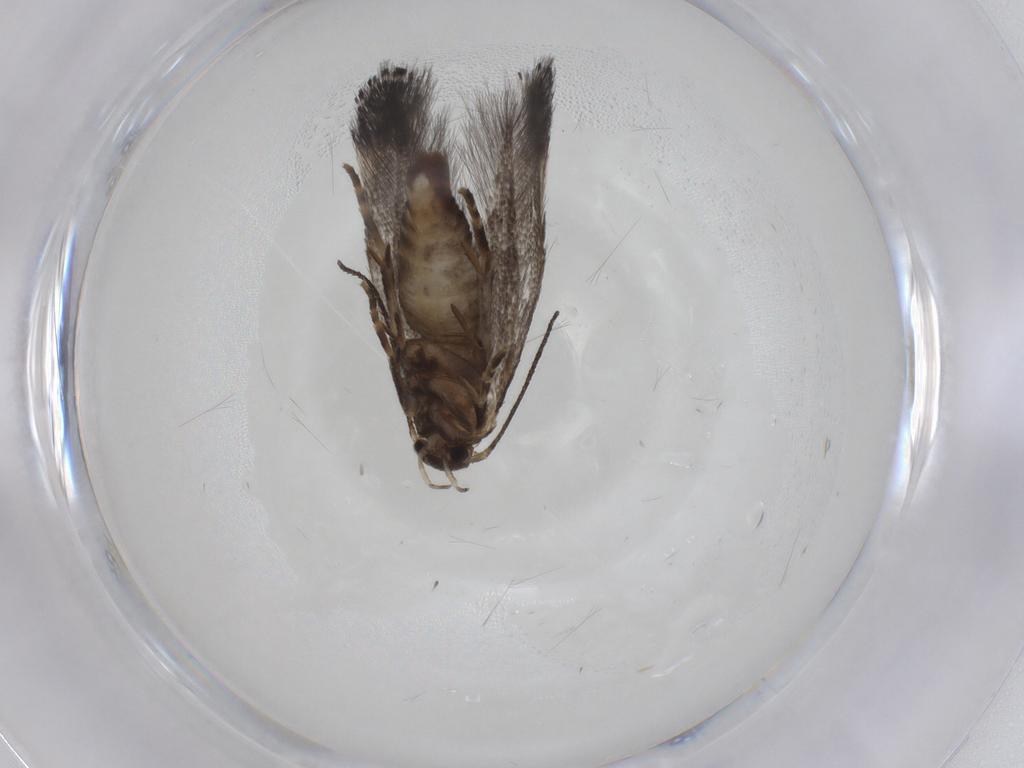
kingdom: Animalia
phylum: Arthropoda
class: Insecta
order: Lepidoptera
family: Elachistidae
